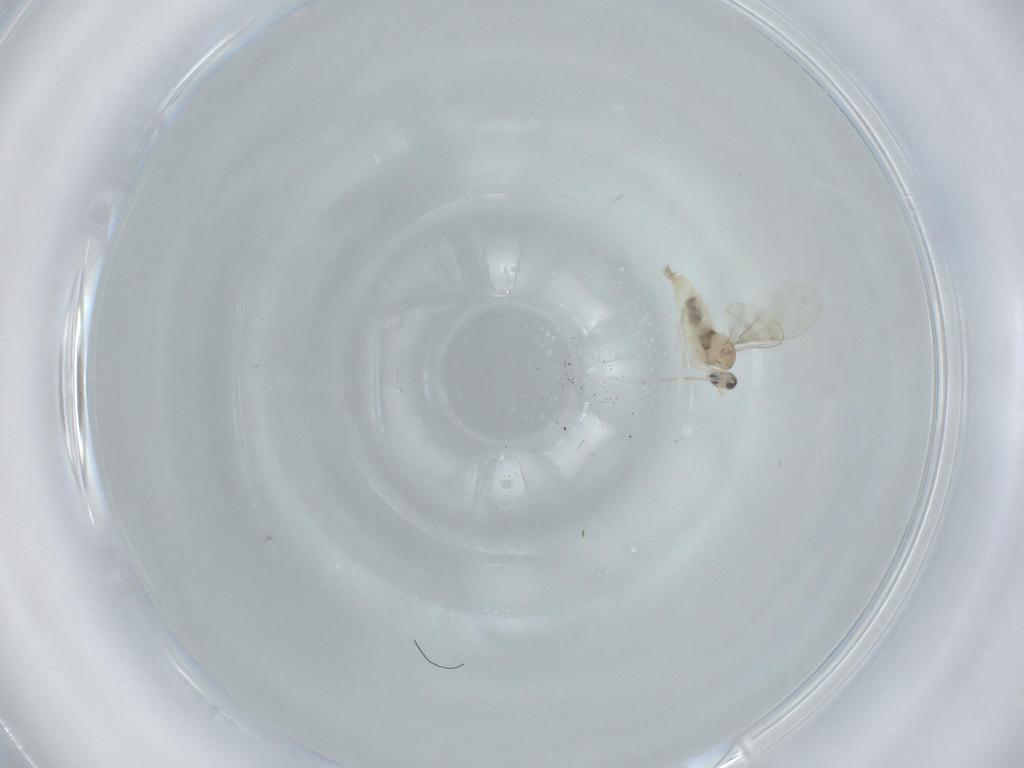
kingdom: Animalia
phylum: Arthropoda
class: Insecta
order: Diptera
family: Cecidomyiidae
